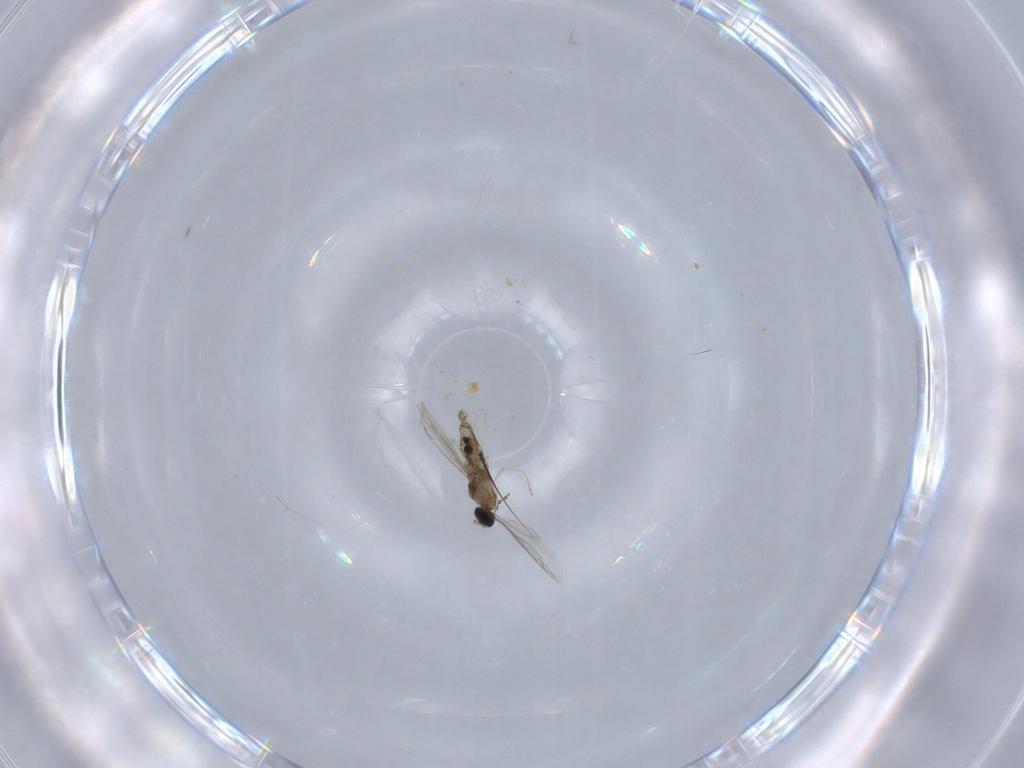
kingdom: Animalia
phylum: Arthropoda
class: Insecta
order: Diptera
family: Cecidomyiidae
